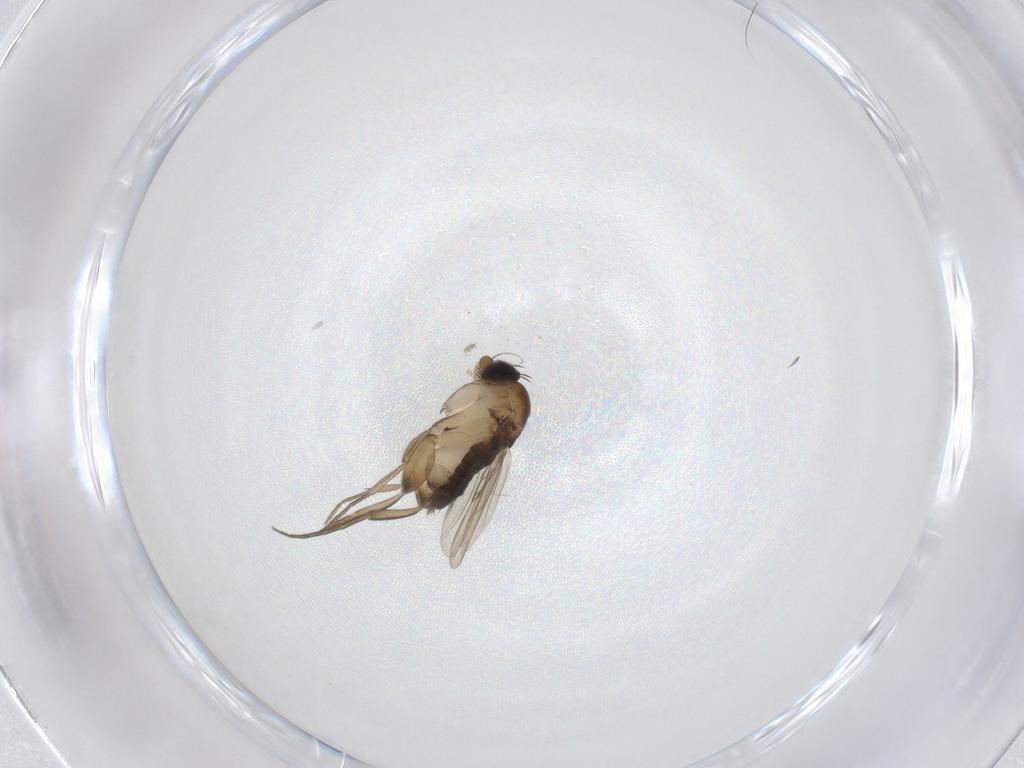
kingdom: Animalia
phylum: Arthropoda
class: Insecta
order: Diptera
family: Phoridae
